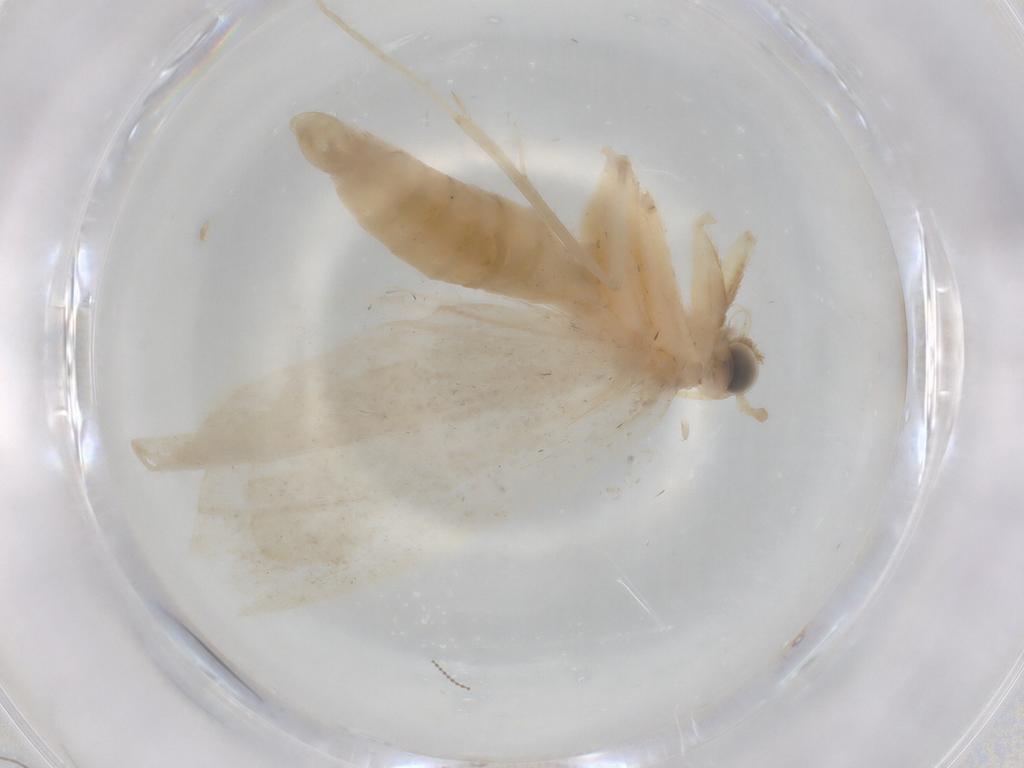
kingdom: Animalia
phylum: Arthropoda
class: Insecta
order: Lepidoptera
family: Crambidae
